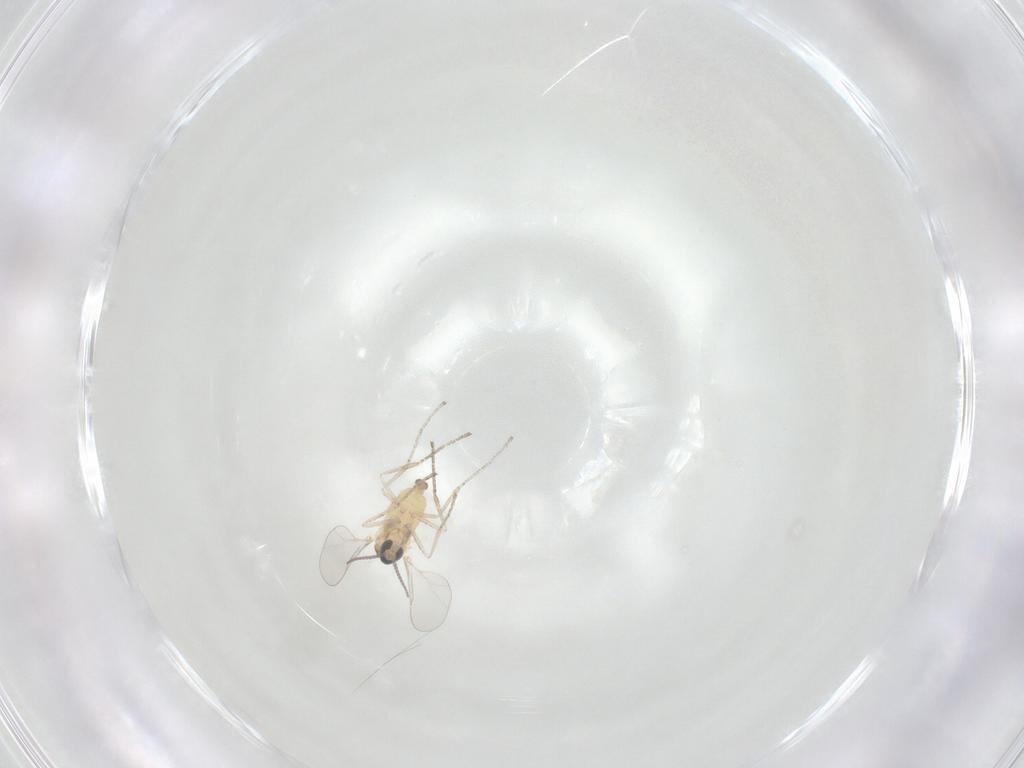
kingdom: Animalia
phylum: Arthropoda
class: Insecta
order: Diptera
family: Cecidomyiidae
